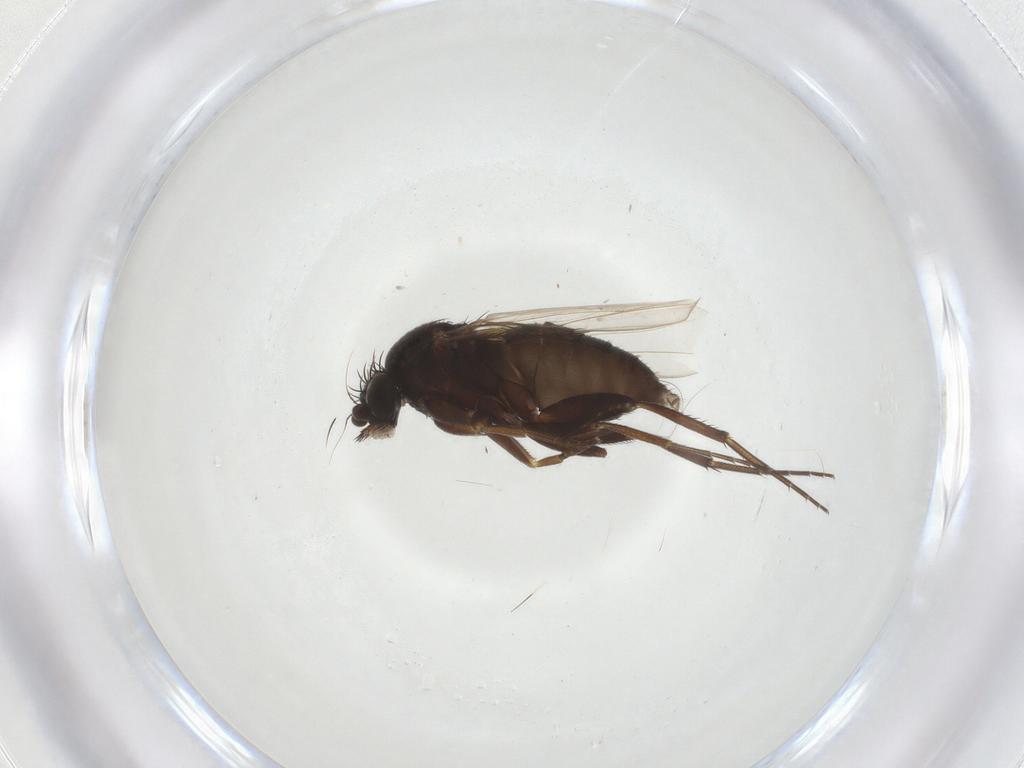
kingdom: Animalia
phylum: Arthropoda
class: Insecta
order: Diptera
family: Phoridae
